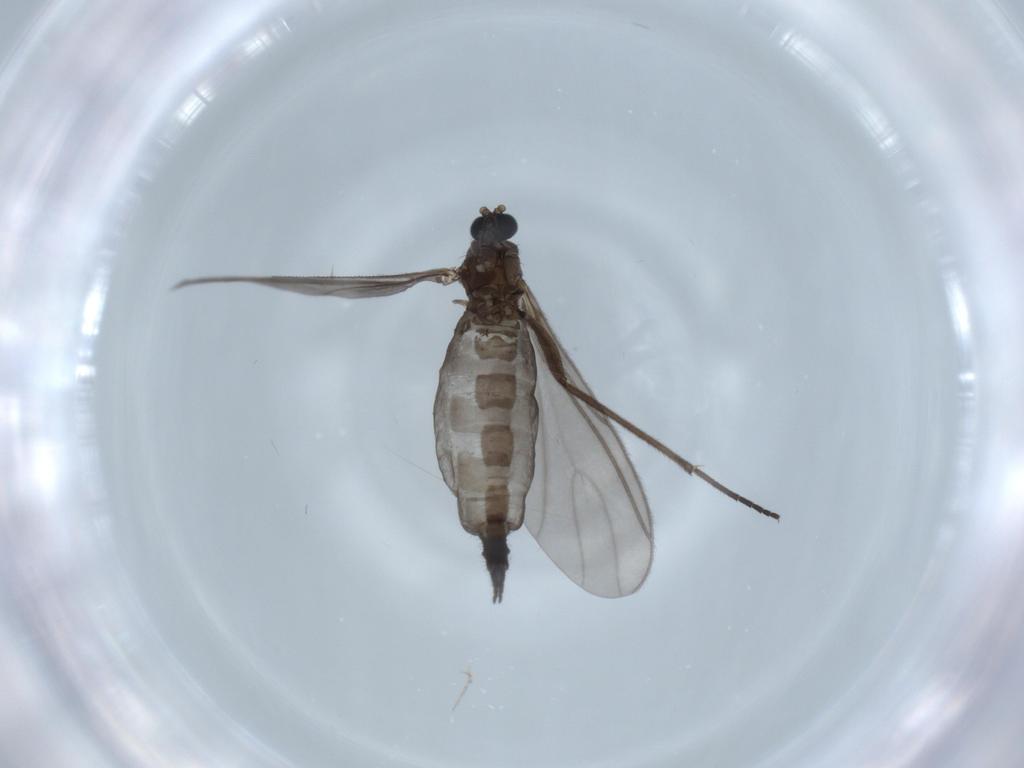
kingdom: Animalia
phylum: Arthropoda
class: Insecta
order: Diptera
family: Sciaridae
